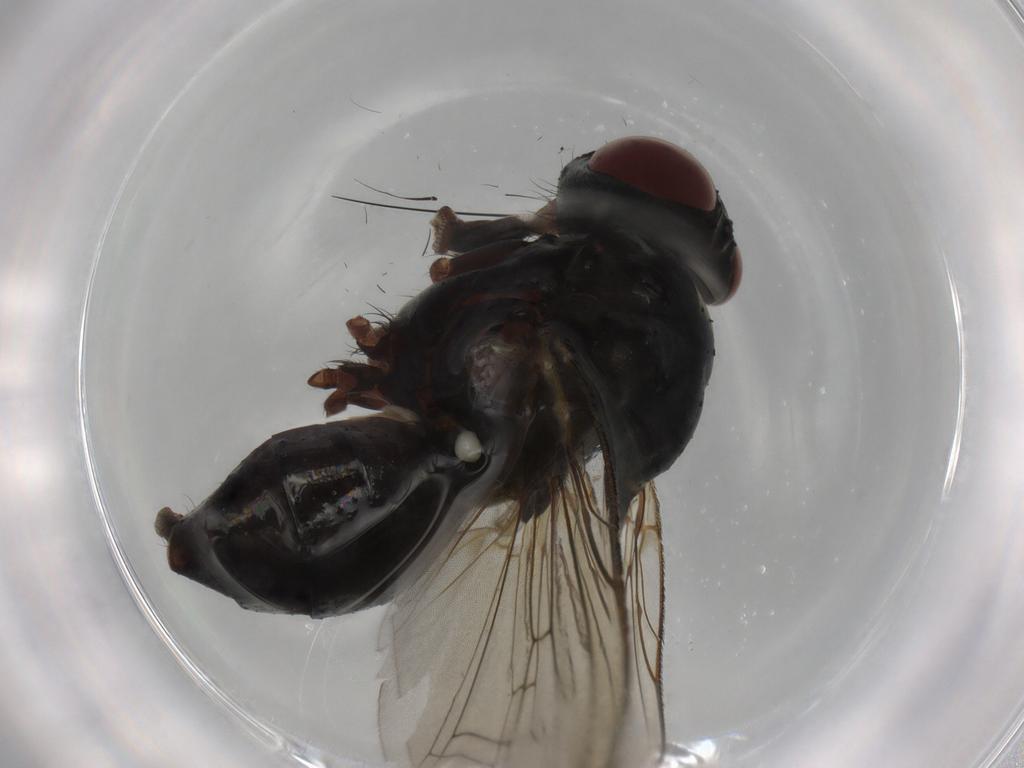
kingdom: Animalia
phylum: Arthropoda
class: Insecta
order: Diptera
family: Anthomyiidae
